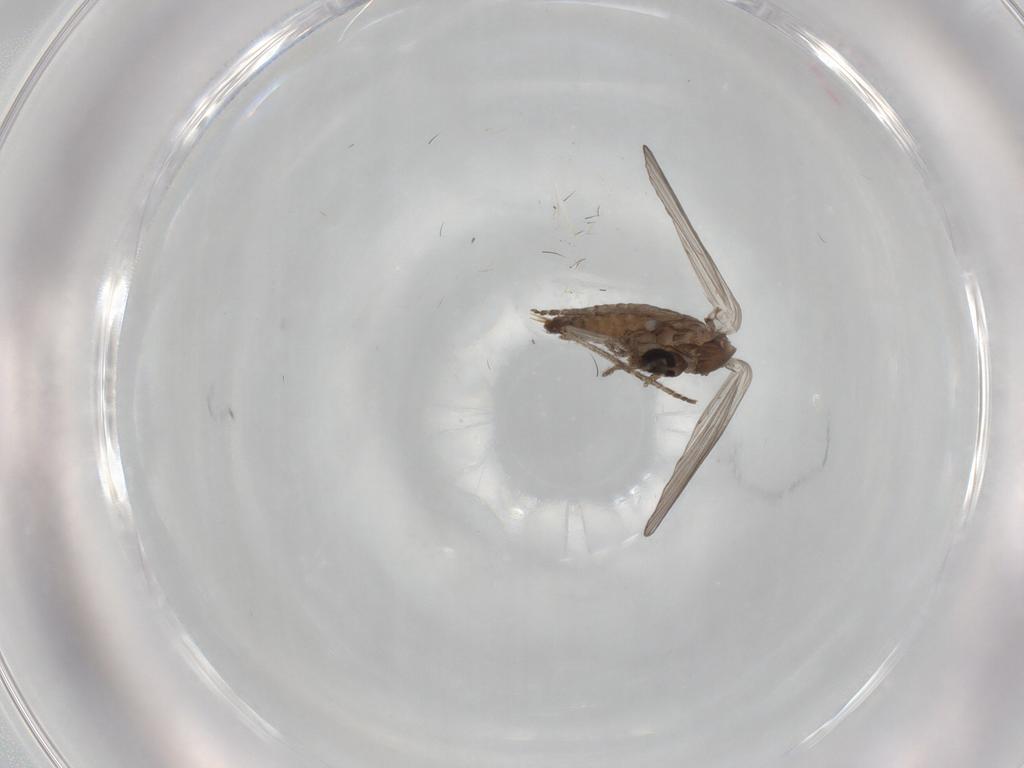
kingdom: Animalia
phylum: Arthropoda
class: Insecta
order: Diptera
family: Psychodidae
